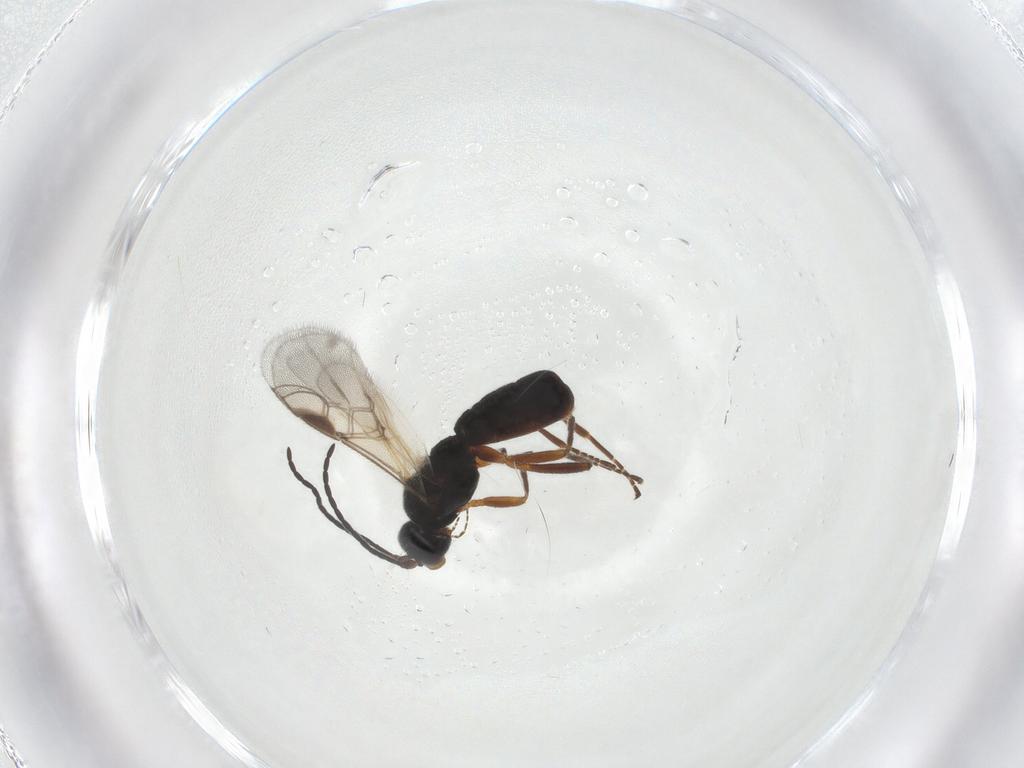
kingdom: Animalia
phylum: Arthropoda
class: Insecta
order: Hymenoptera
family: Braconidae
